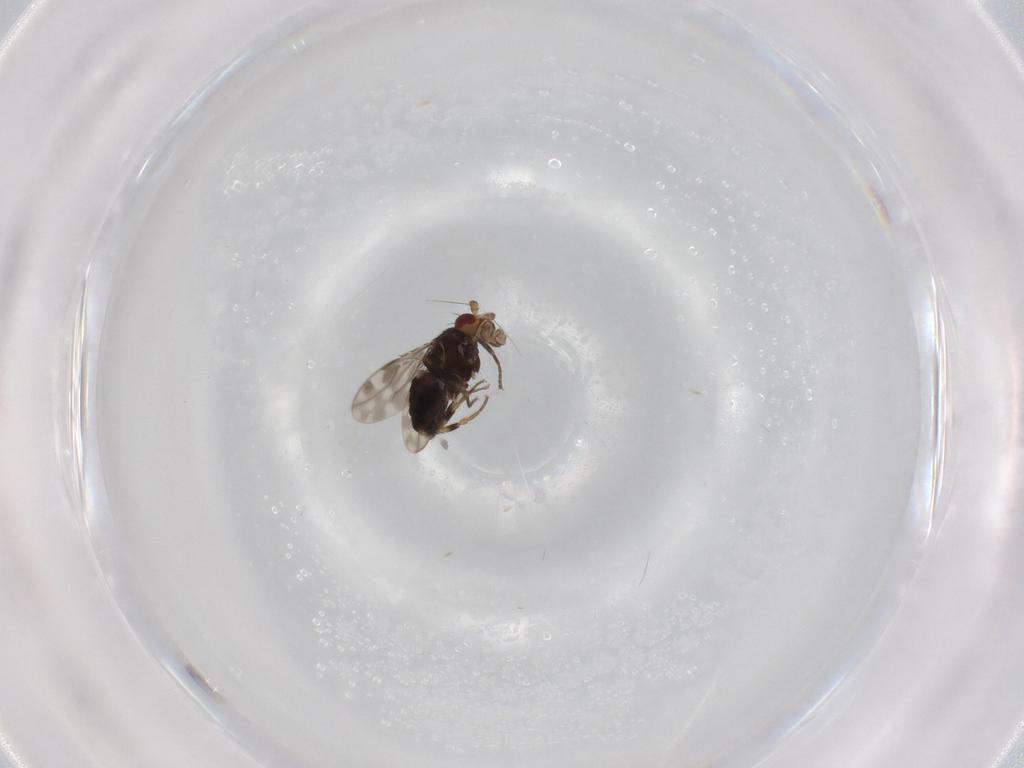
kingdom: Animalia
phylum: Arthropoda
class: Insecta
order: Diptera
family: Sphaeroceridae
